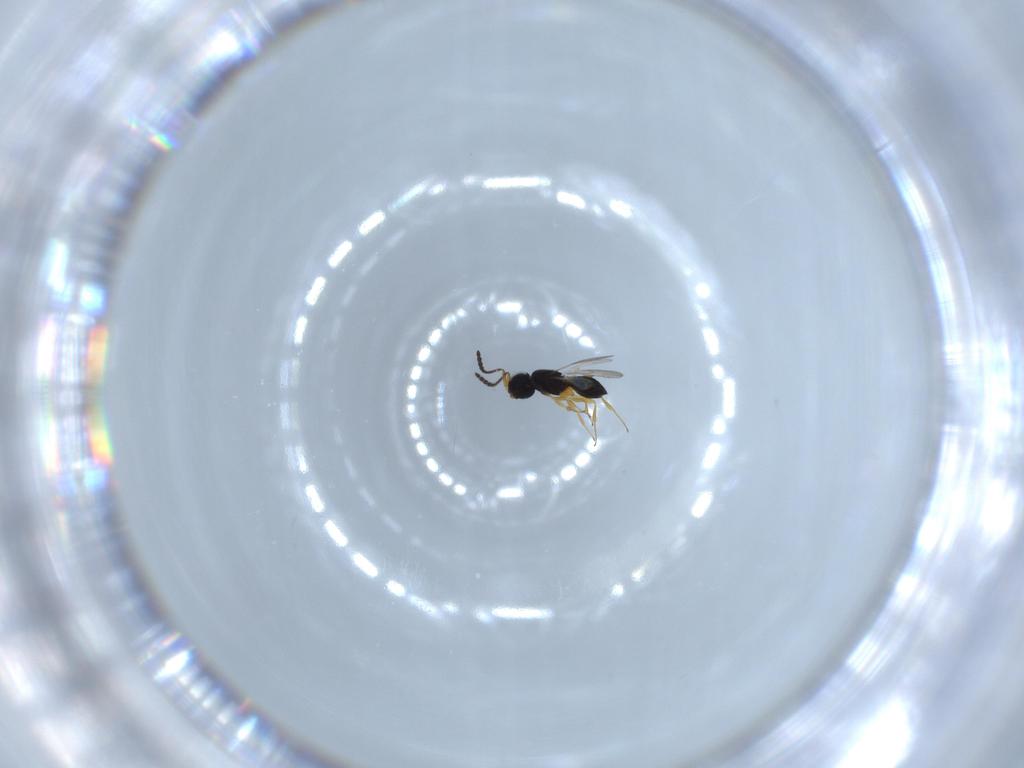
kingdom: Animalia
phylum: Arthropoda
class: Insecta
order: Hymenoptera
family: Scelionidae
